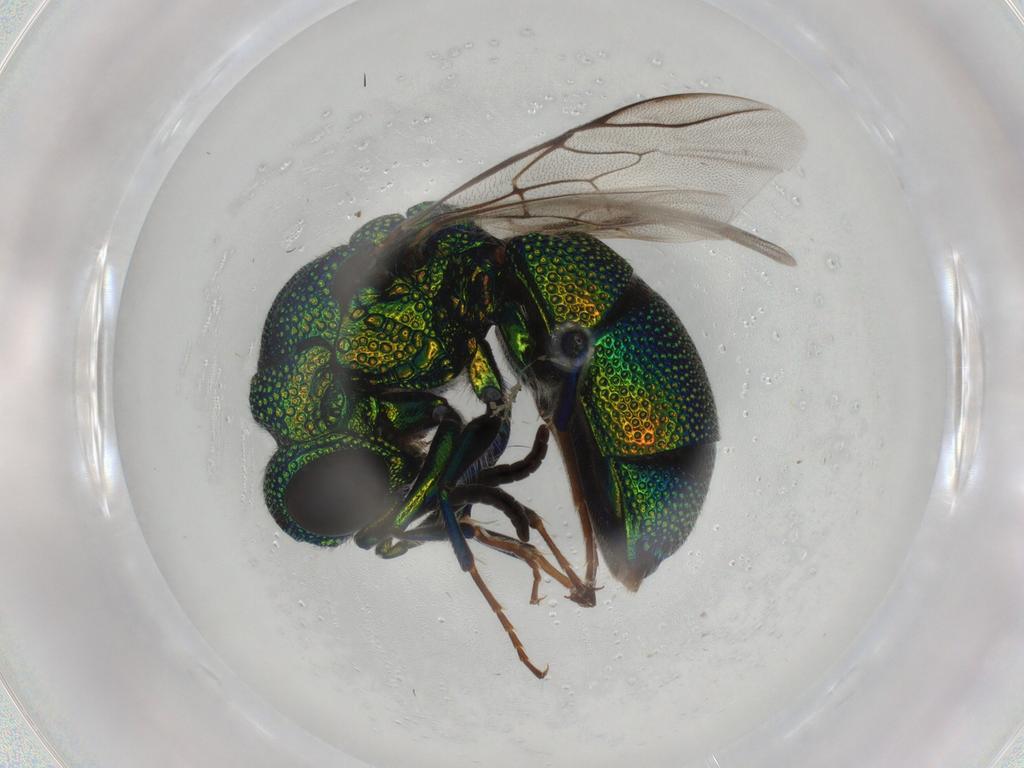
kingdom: Animalia
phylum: Arthropoda
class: Insecta
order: Hymenoptera
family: Chrysididae
